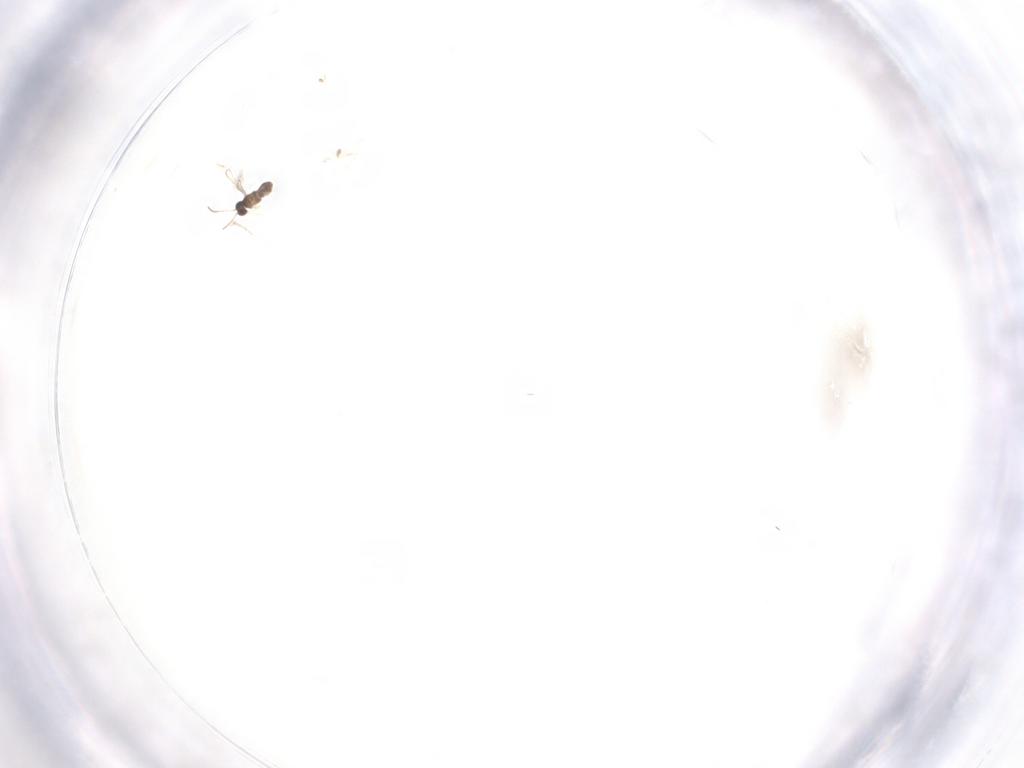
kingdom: Animalia
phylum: Arthropoda
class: Insecta
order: Hymenoptera
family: Mymaridae
